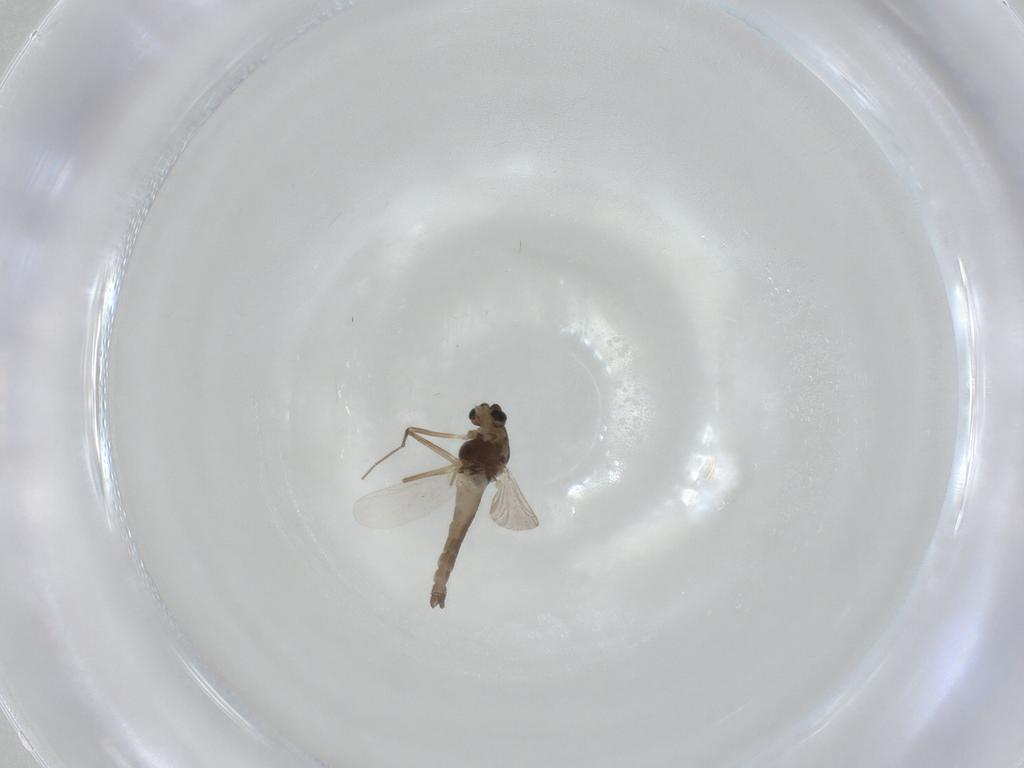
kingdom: Animalia
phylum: Arthropoda
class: Insecta
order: Diptera
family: Chironomidae
